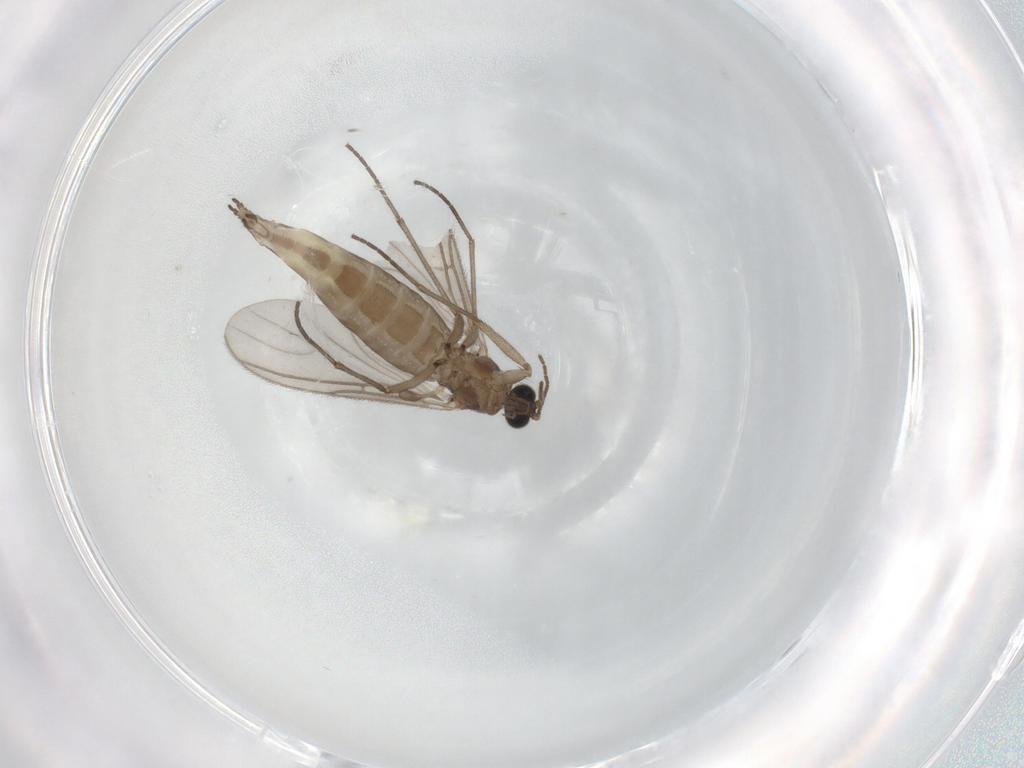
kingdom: Animalia
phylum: Arthropoda
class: Insecta
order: Diptera
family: Sciaridae
